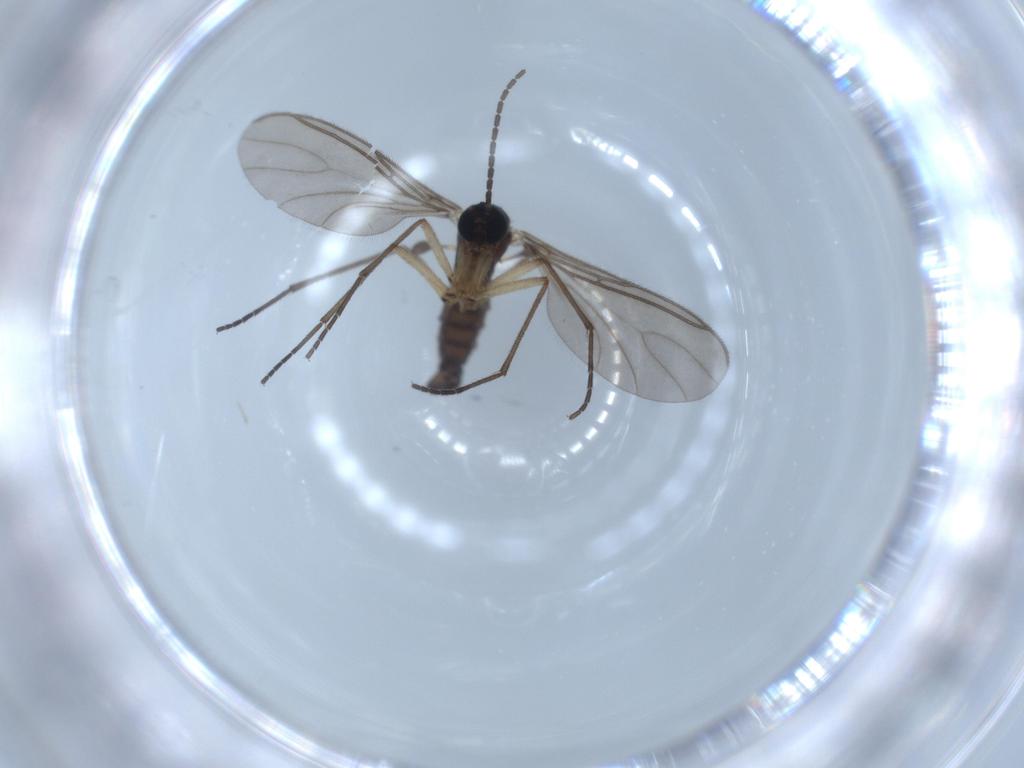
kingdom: Animalia
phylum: Arthropoda
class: Insecta
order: Diptera
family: Sciaridae
